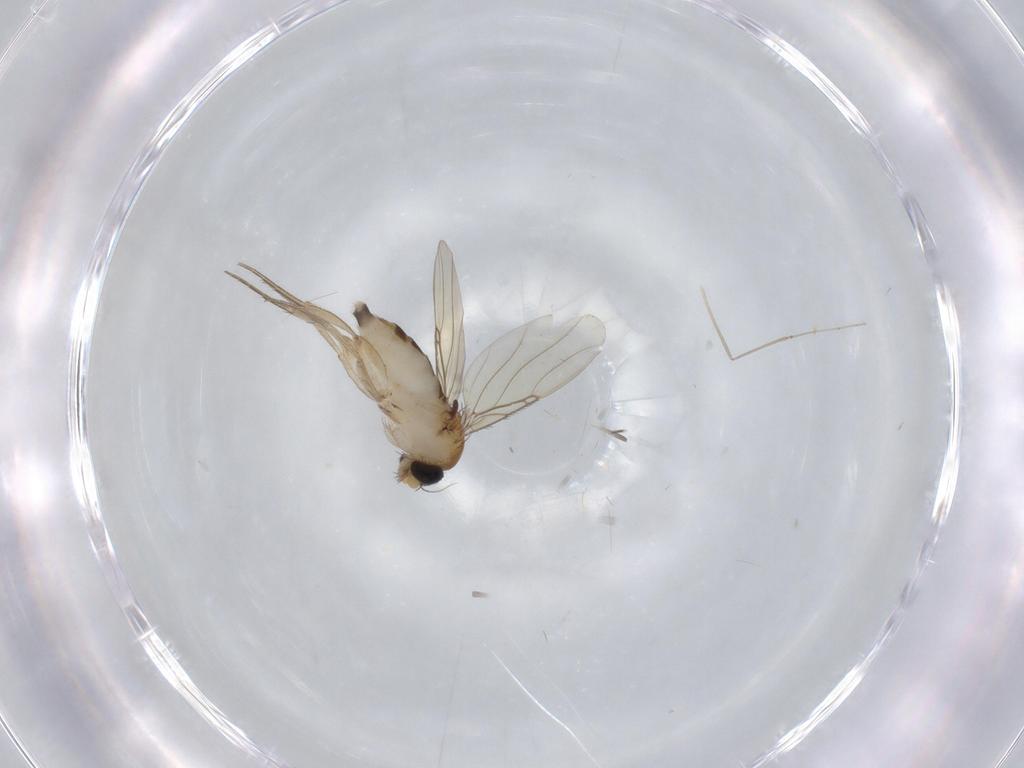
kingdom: Animalia
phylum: Arthropoda
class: Insecta
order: Diptera
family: Phoridae
